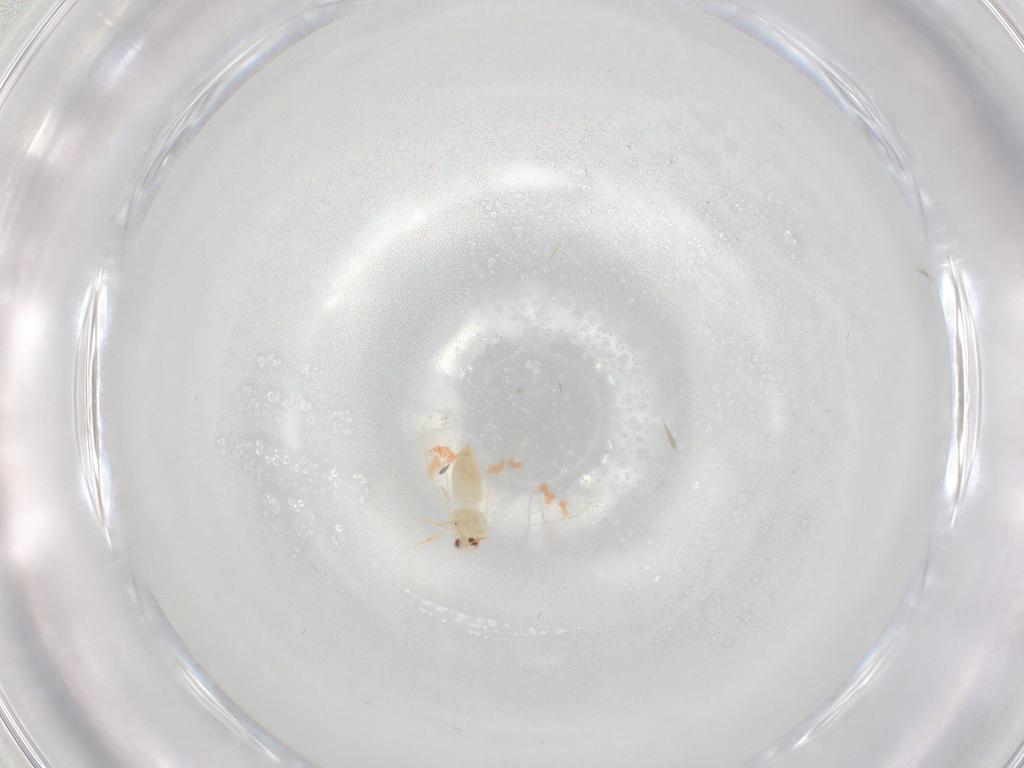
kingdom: Animalia
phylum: Arthropoda
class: Insecta
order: Hemiptera
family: Aleyrodidae
